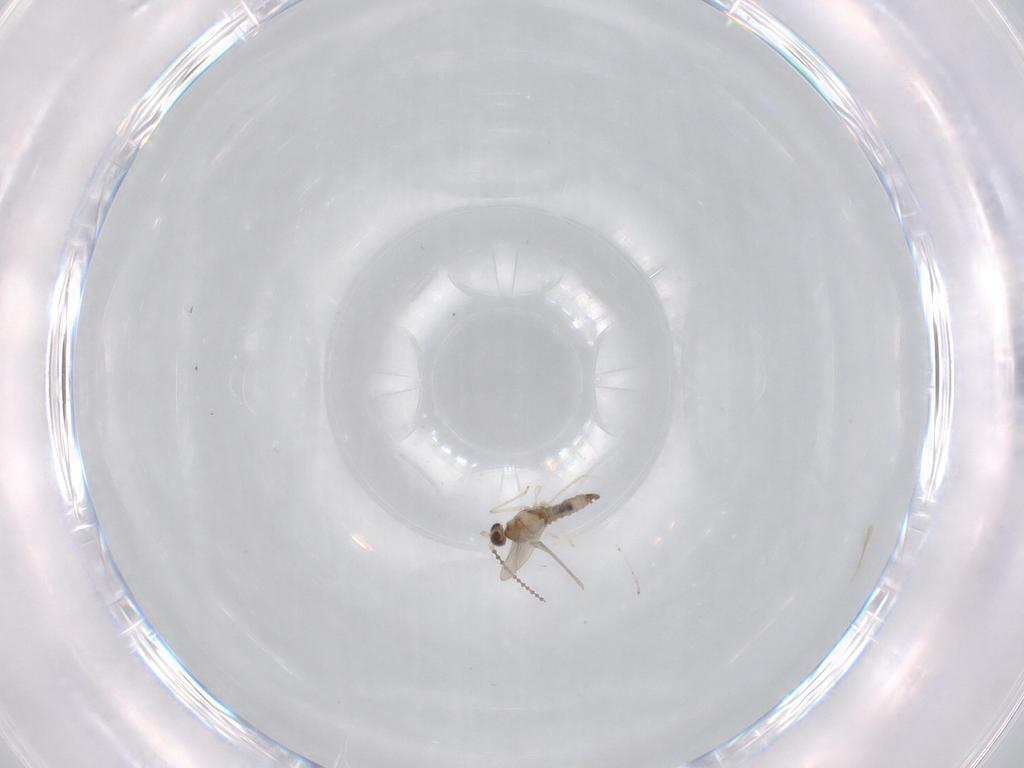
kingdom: Animalia
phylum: Arthropoda
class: Insecta
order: Diptera
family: Cecidomyiidae
